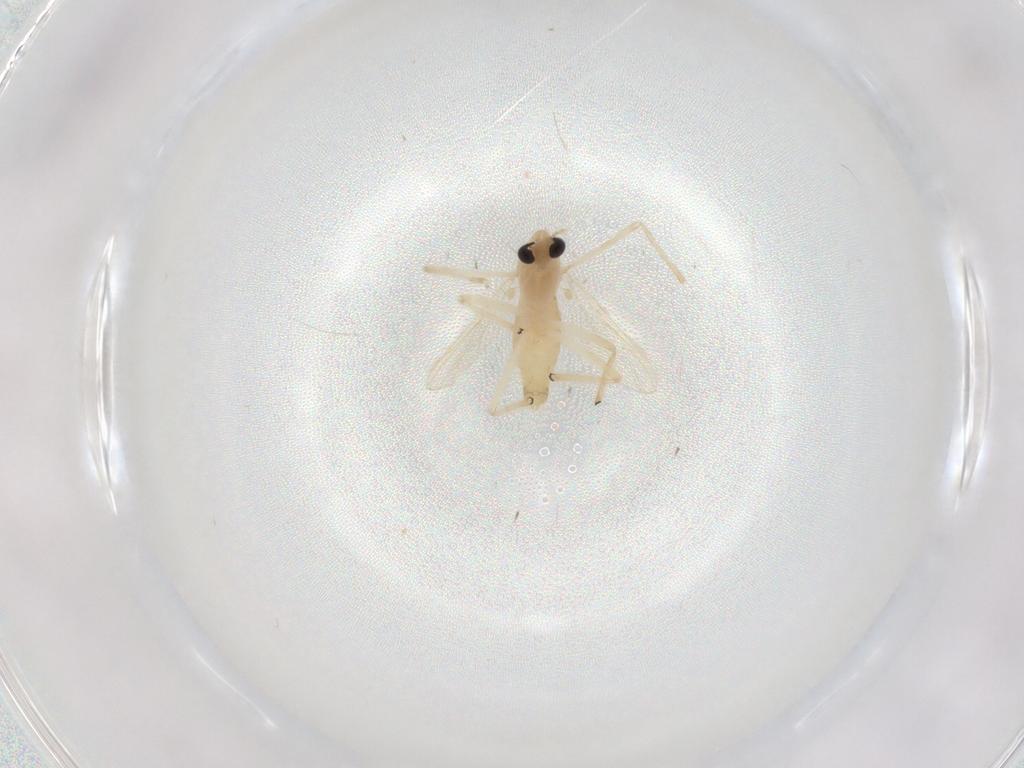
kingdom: Animalia
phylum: Arthropoda
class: Insecta
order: Diptera
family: Chironomidae
